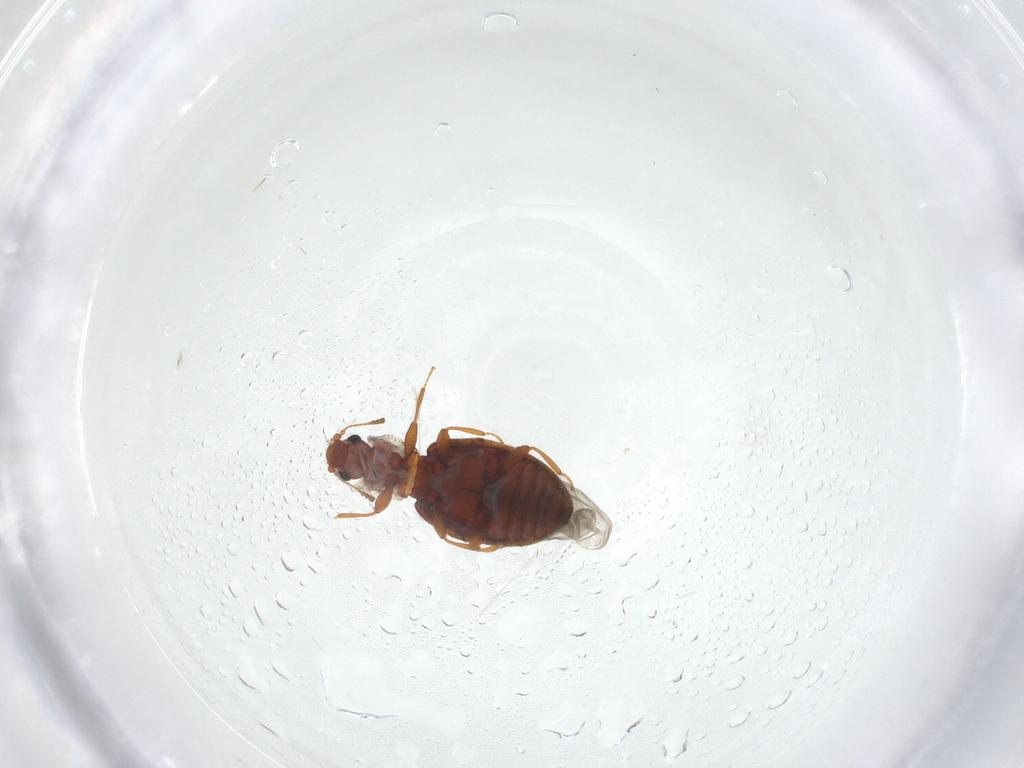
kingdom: Animalia
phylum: Arthropoda
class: Insecta
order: Coleoptera
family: Latridiidae
